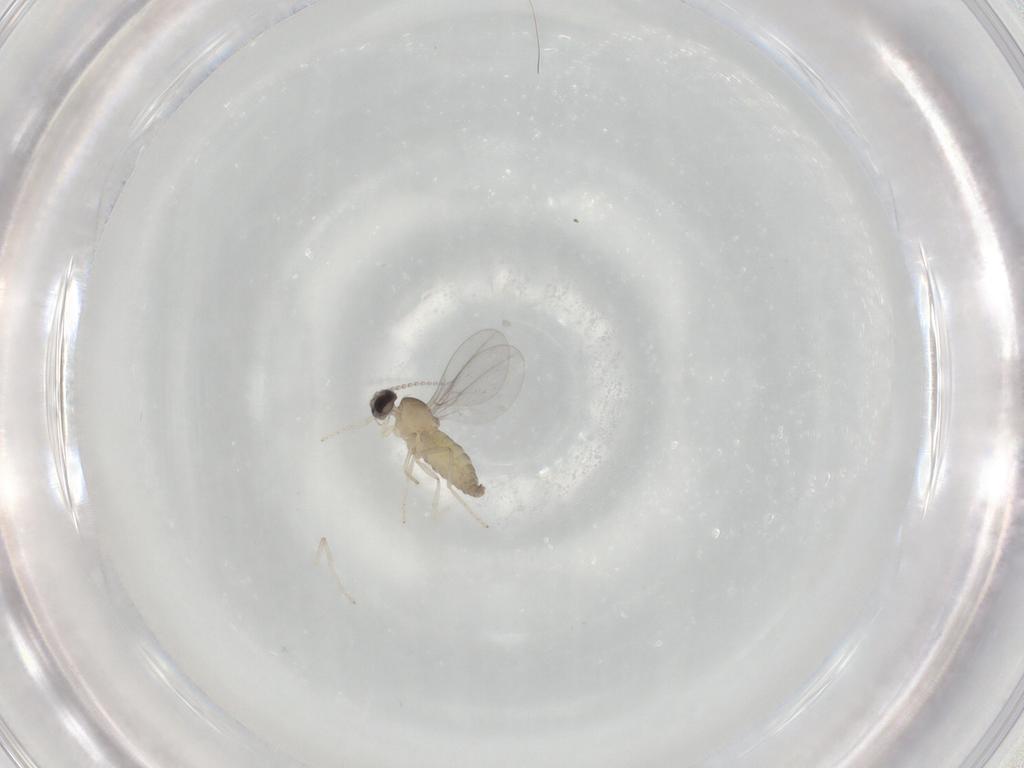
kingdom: Animalia
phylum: Arthropoda
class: Insecta
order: Diptera
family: Cecidomyiidae
